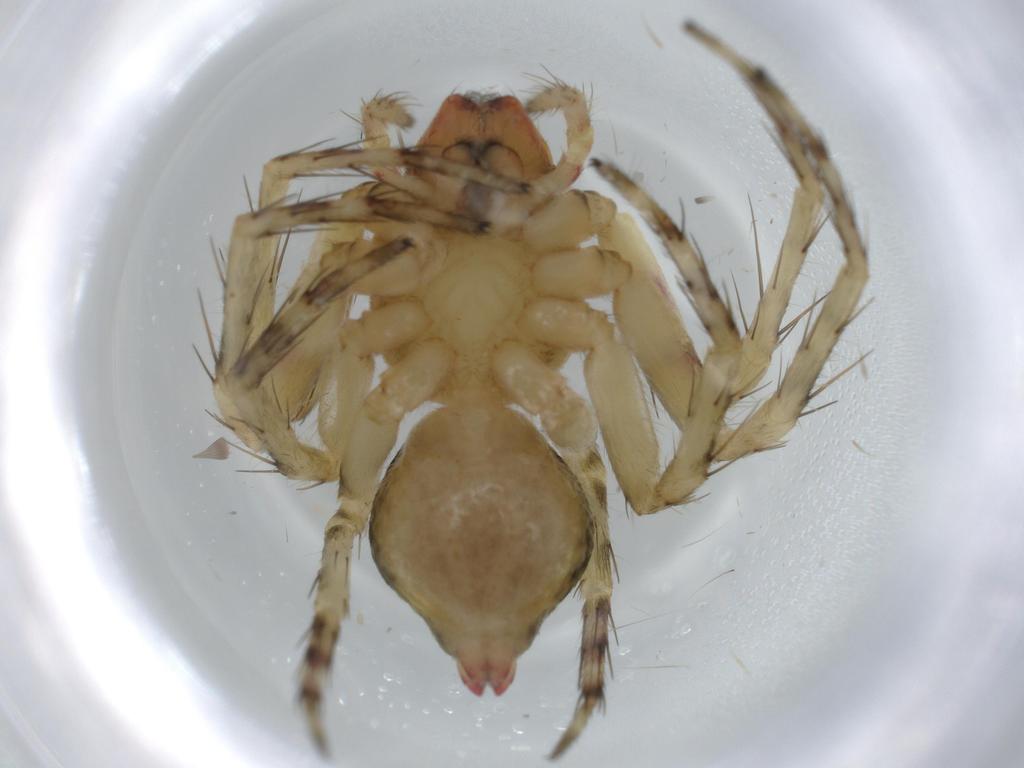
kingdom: Animalia
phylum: Arthropoda
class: Arachnida
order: Araneae
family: Oxyopidae
